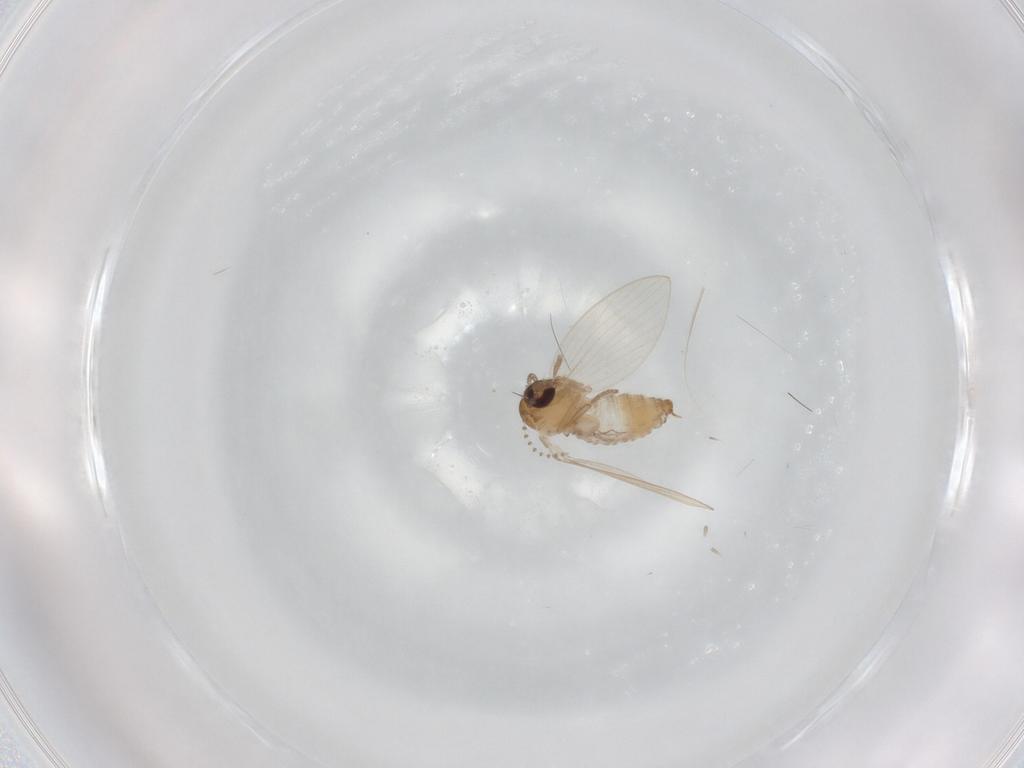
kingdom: Animalia
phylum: Arthropoda
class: Insecta
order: Diptera
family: Psychodidae
